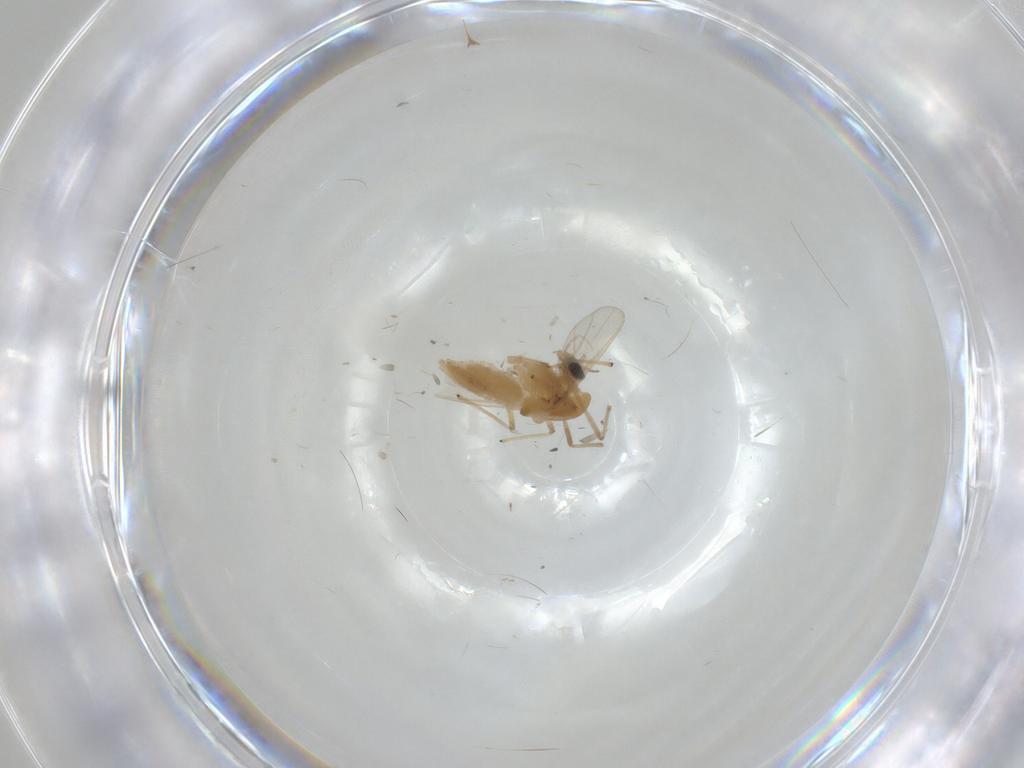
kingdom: Animalia
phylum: Arthropoda
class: Insecta
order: Diptera
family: Chironomidae
